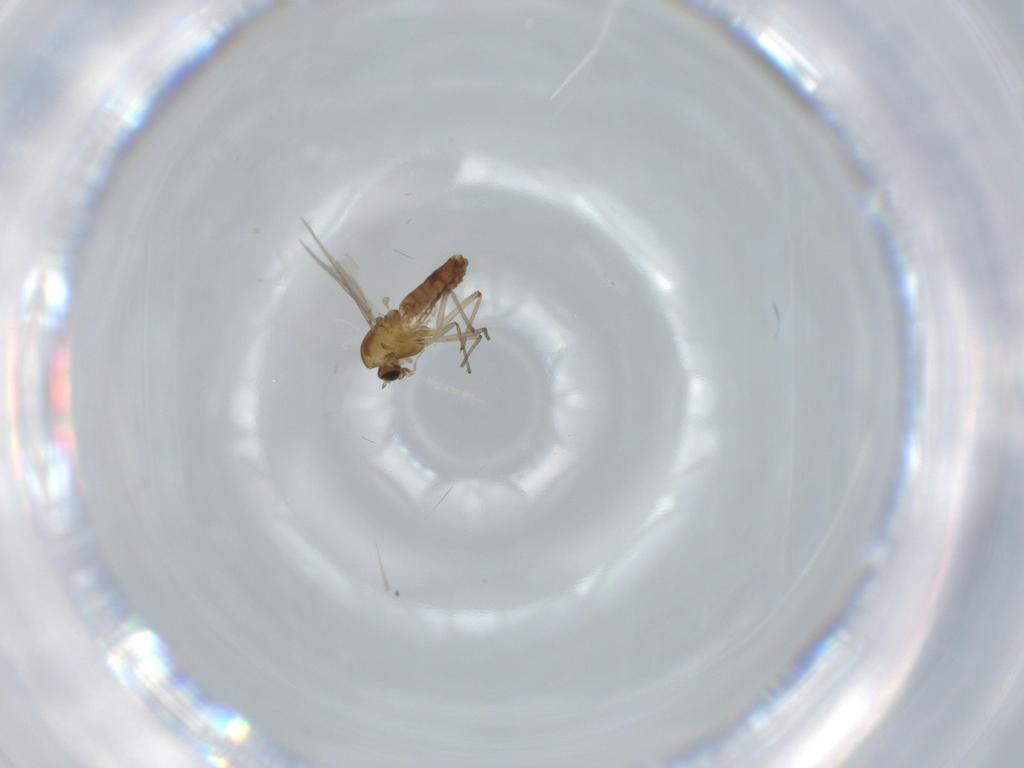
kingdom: Animalia
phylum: Arthropoda
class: Insecta
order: Diptera
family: Chironomidae
